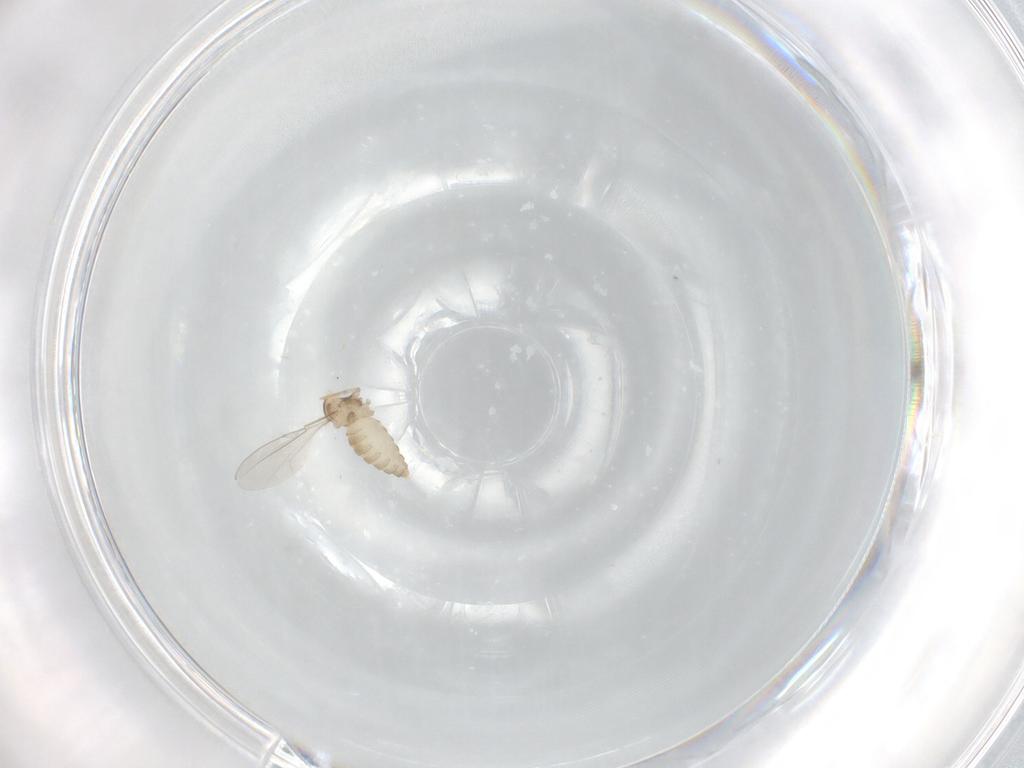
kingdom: Animalia
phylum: Arthropoda
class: Insecta
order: Diptera
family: Cecidomyiidae
